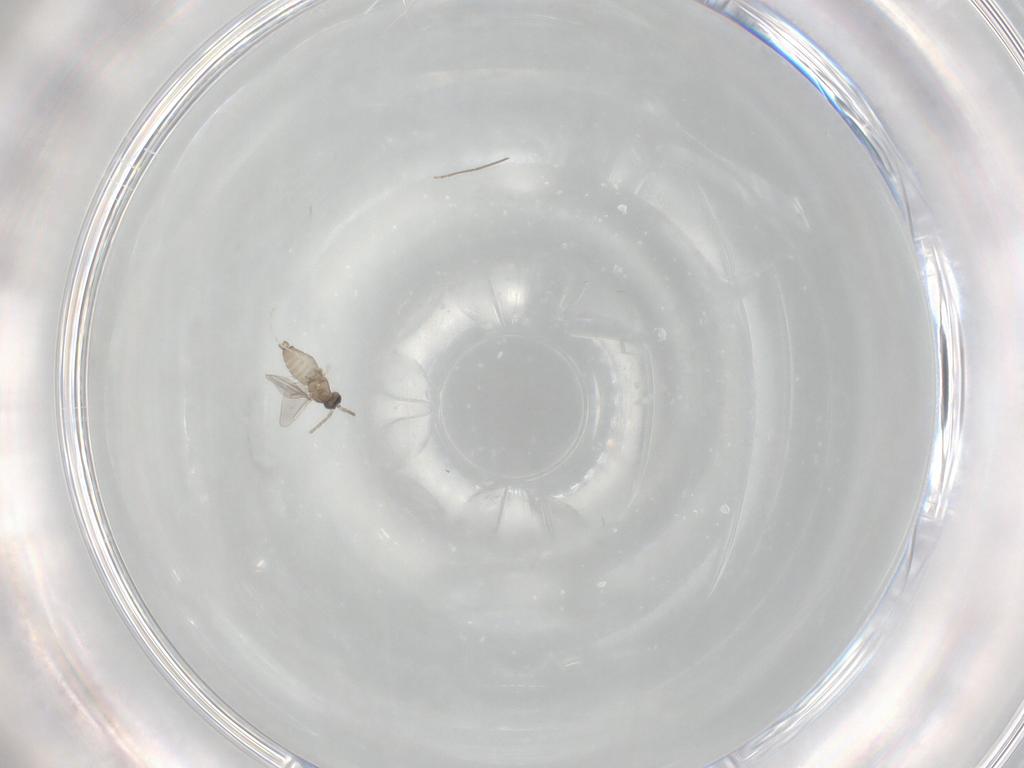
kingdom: Animalia
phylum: Arthropoda
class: Insecta
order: Diptera
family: Cecidomyiidae
